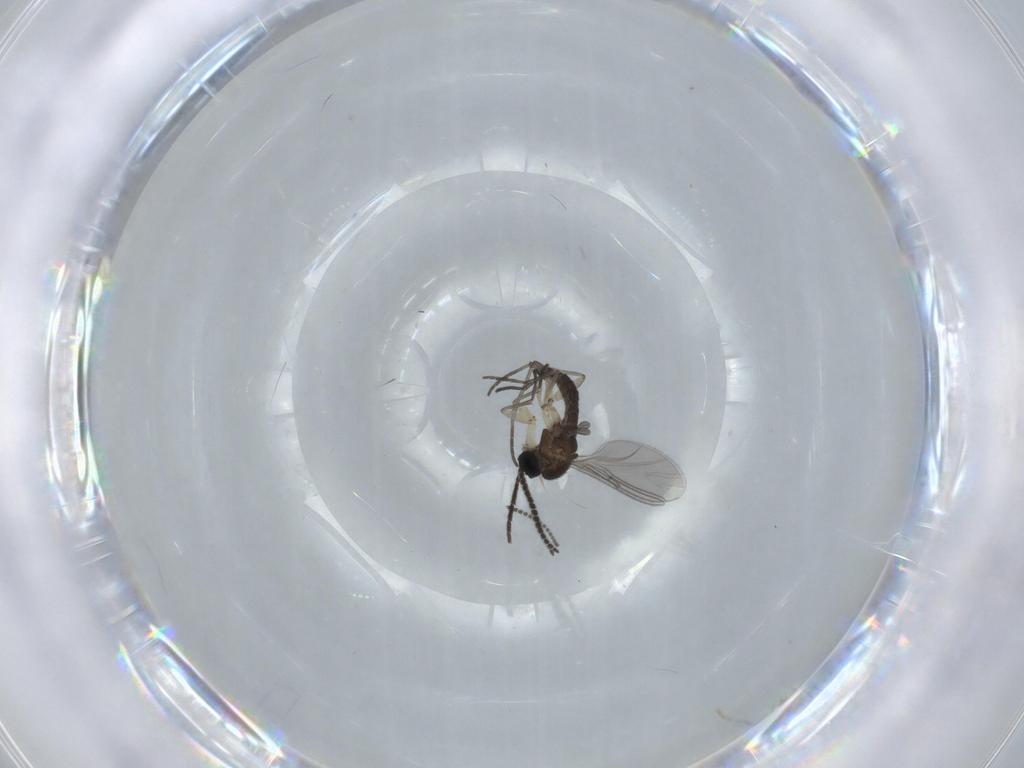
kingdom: Animalia
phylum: Arthropoda
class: Insecta
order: Diptera
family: Sciaridae
